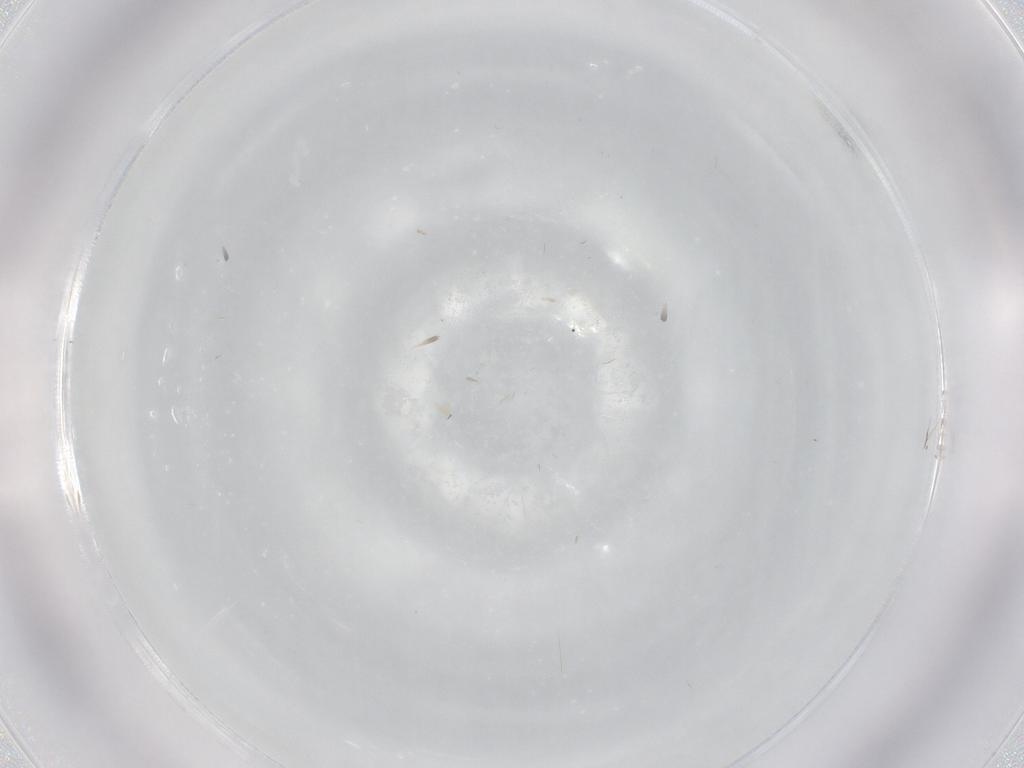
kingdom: Animalia
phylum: Arthropoda
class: Insecta
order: Diptera
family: Cecidomyiidae
